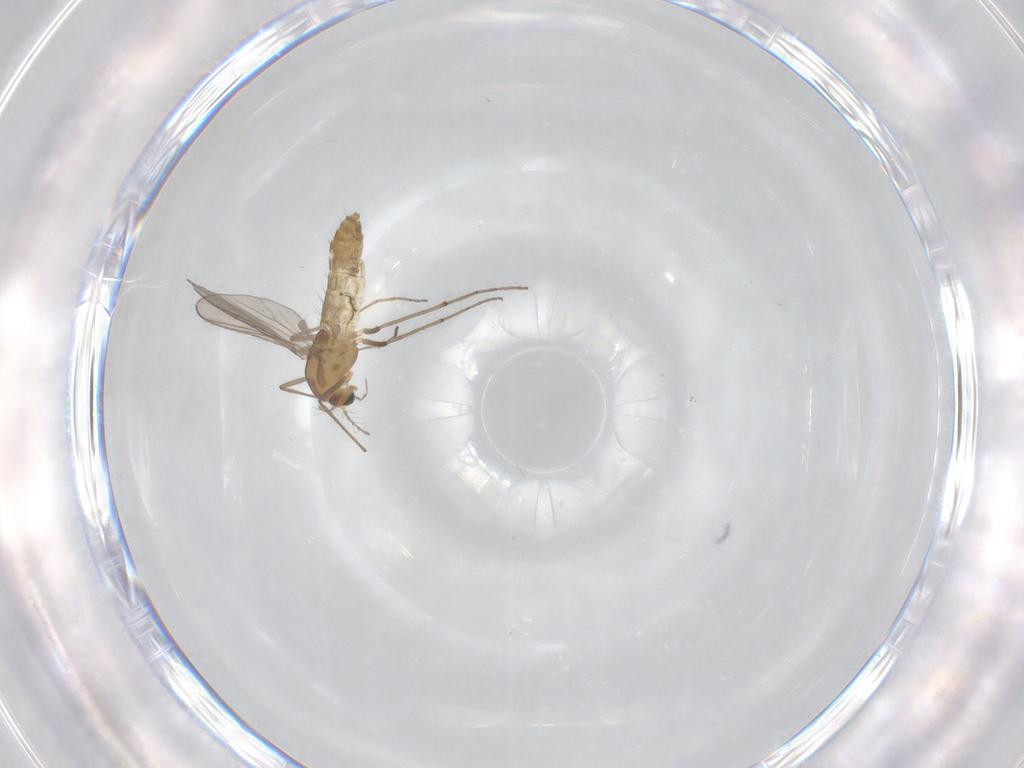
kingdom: Animalia
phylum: Arthropoda
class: Insecta
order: Diptera
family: Chironomidae
